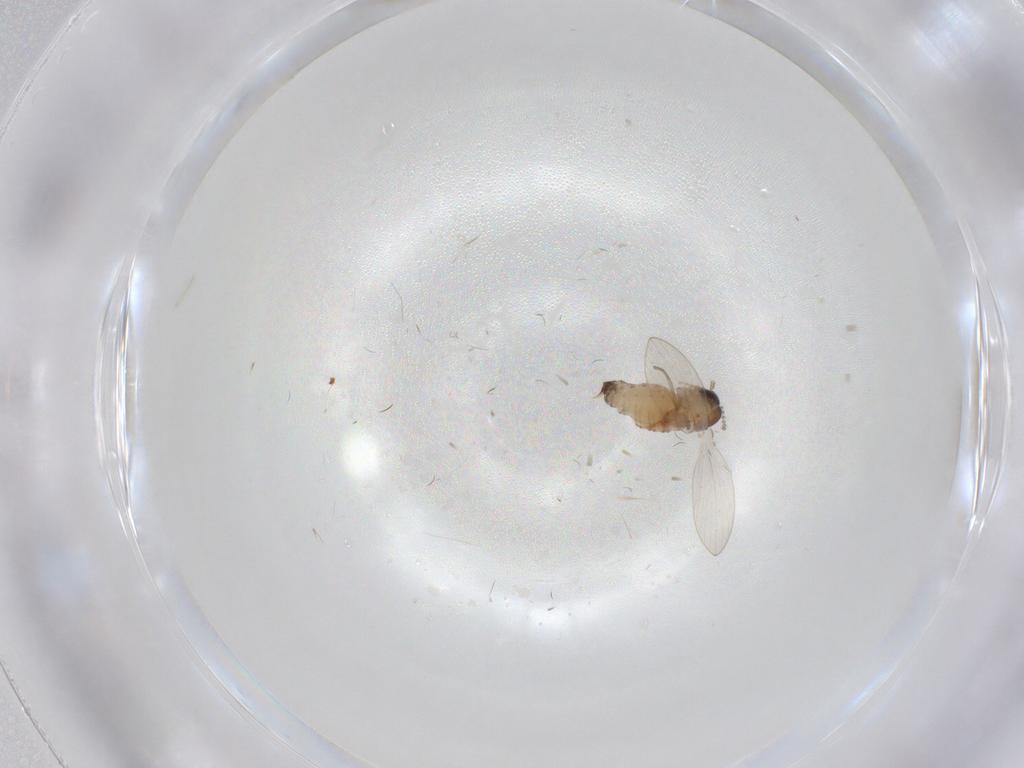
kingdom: Animalia
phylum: Arthropoda
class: Insecta
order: Diptera
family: Psychodidae
